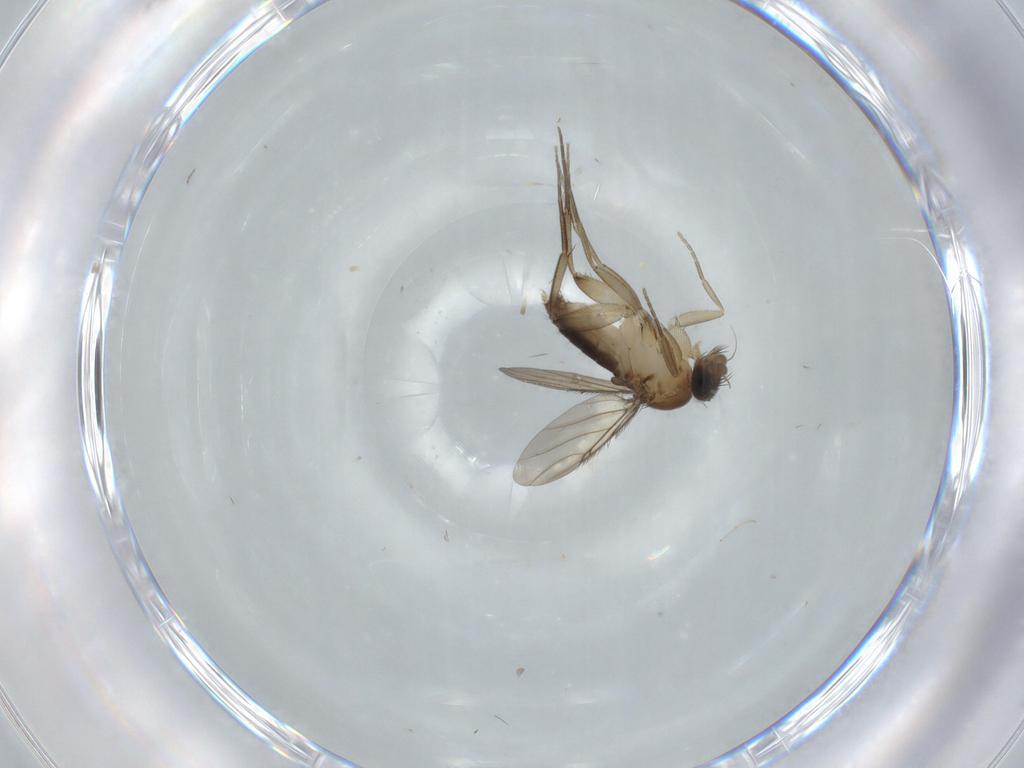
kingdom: Animalia
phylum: Arthropoda
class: Insecta
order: Diptera
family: Phoridae
